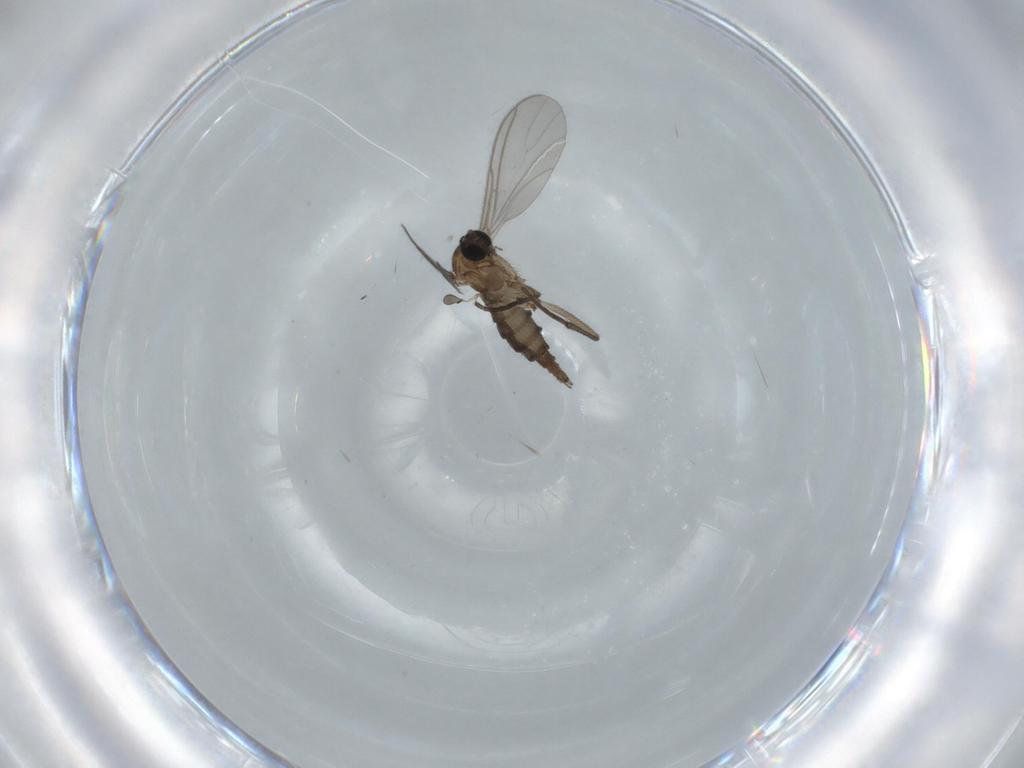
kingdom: Animalia
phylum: Arthropoda
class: Insecta
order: Diptera
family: Sciaridae
